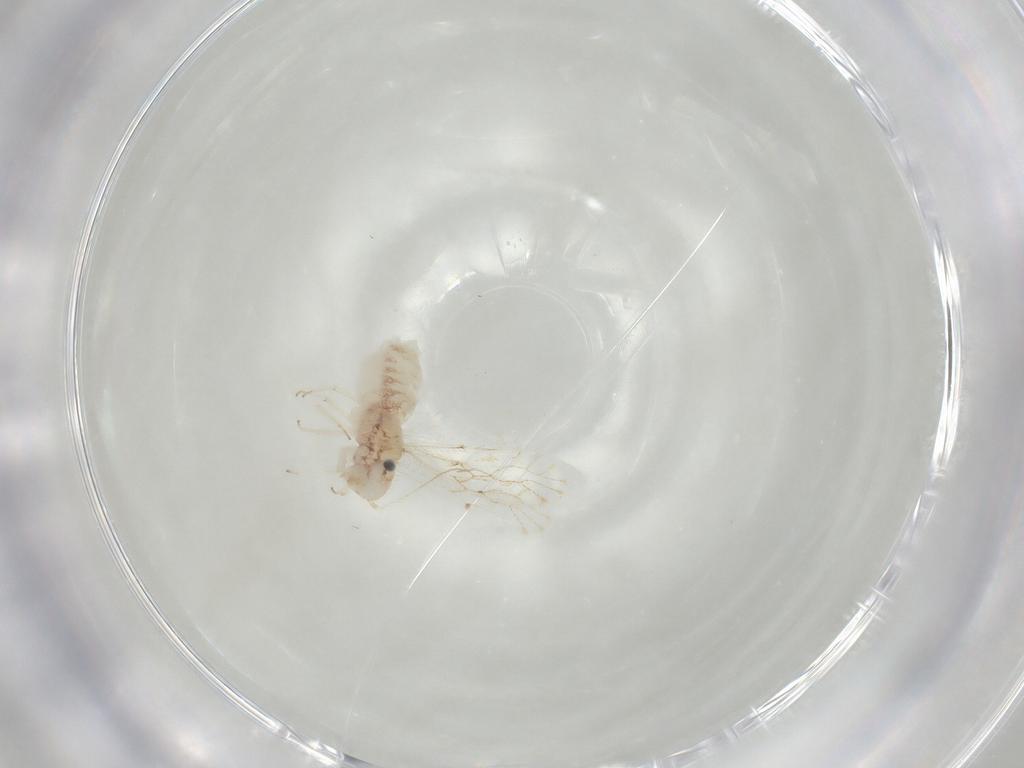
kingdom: Animalia
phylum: Arthropoda
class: Insecta
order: Psocodea
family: Trichopsocidae
